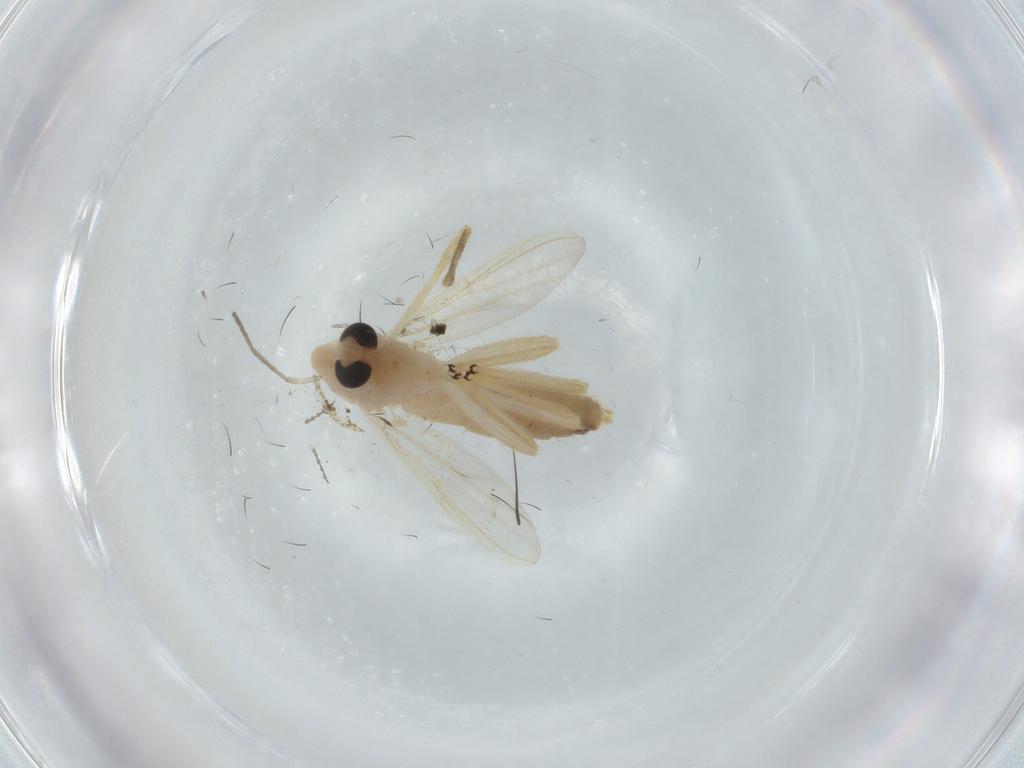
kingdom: Animalia
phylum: Arthropoda
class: Insecta
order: Diptera
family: Chironomidae
